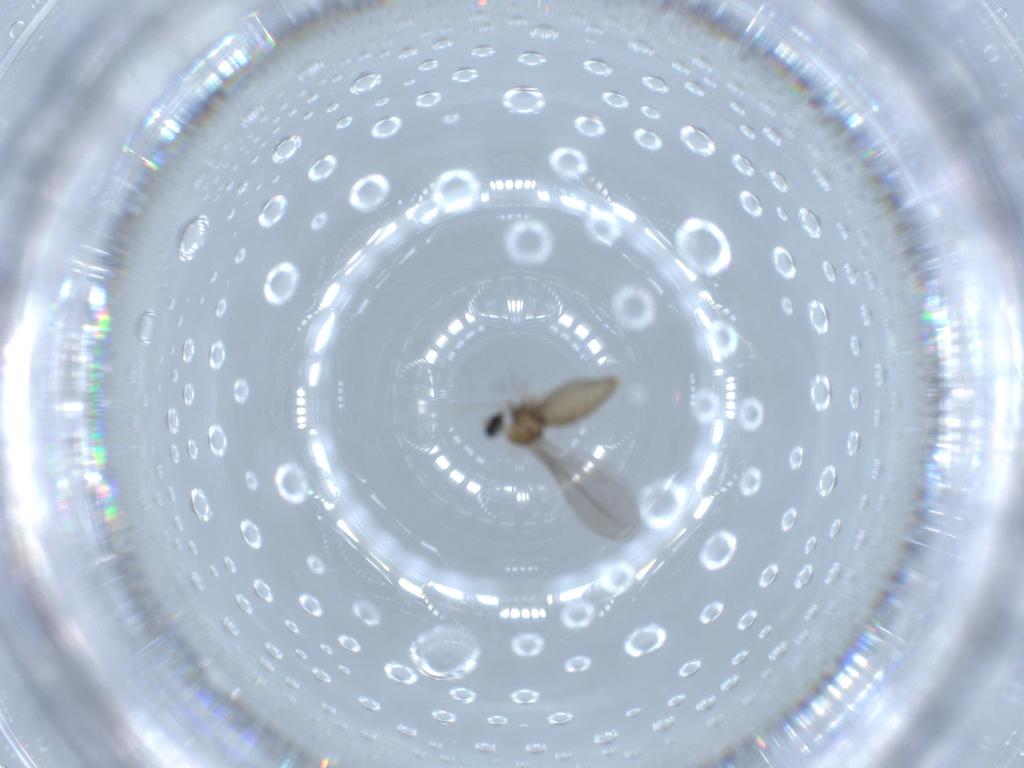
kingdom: Animalia
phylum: Arthropoda
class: Insecta
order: Diptera
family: Cecidomyiidae
